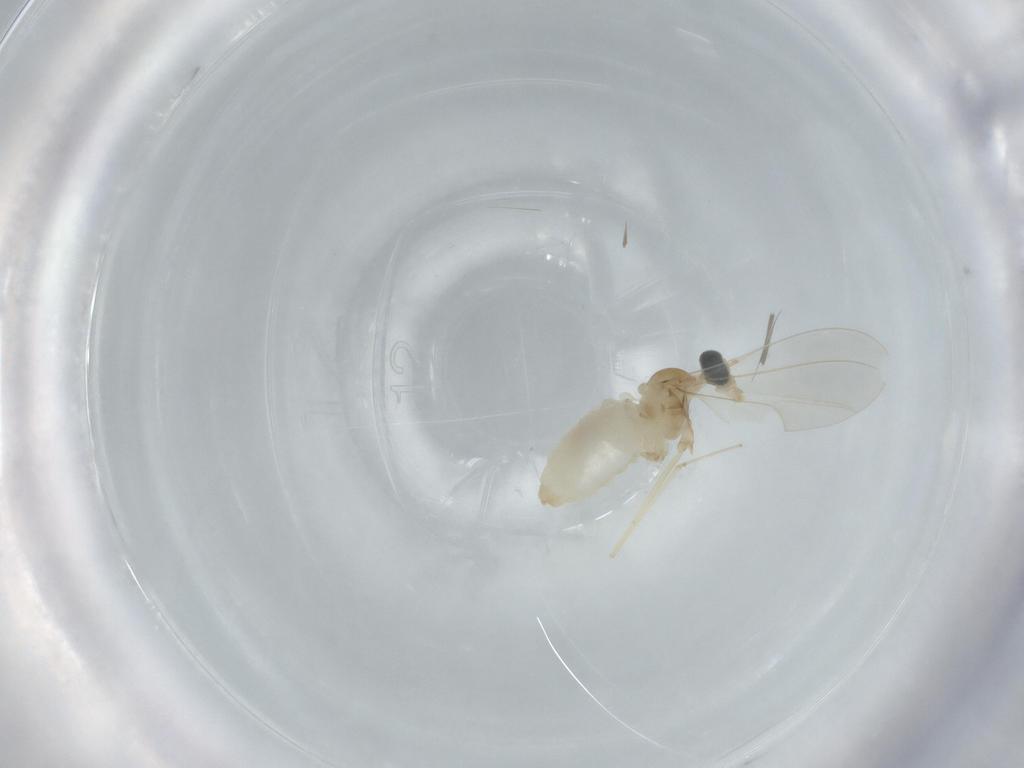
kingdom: Animalia
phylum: Arthropoda
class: Insecta
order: Diptera
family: Cecidomyiidae
